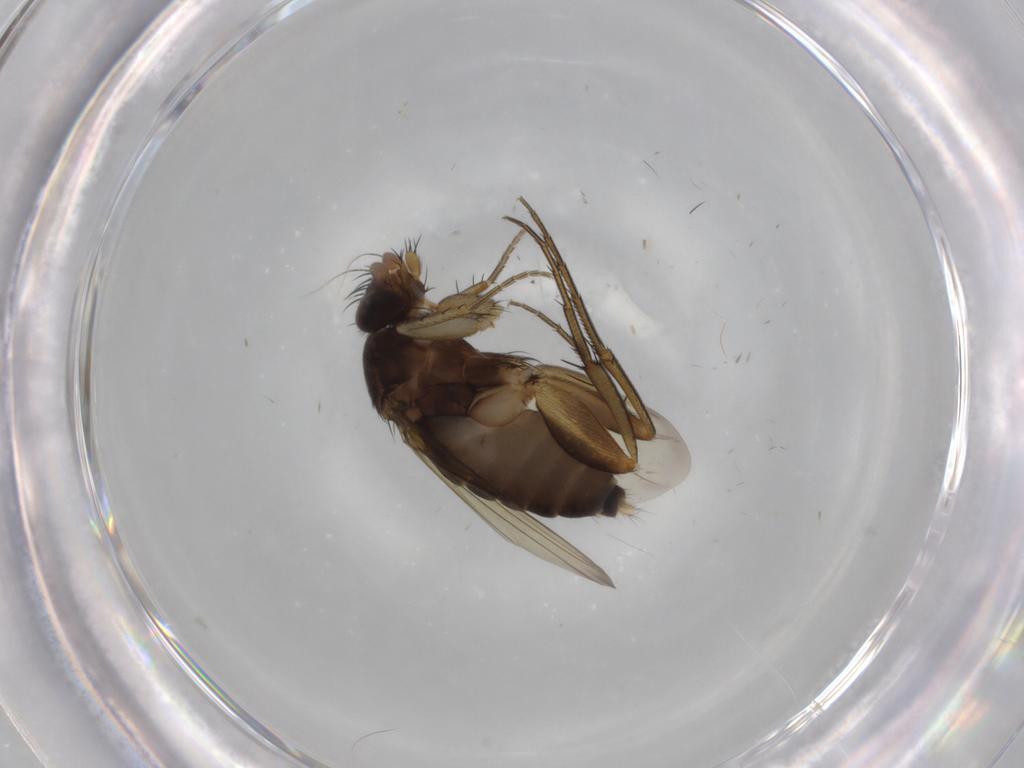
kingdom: Animalia
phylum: Arthropoda
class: Insecta
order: Diptera
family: Phoridae
